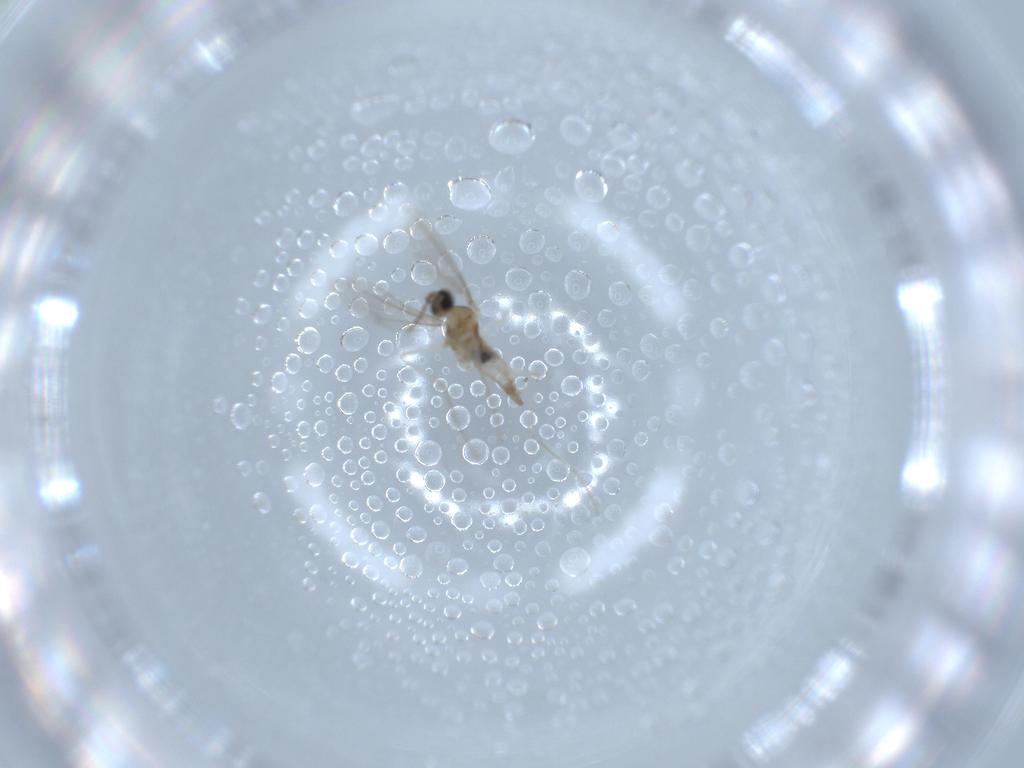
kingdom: Animalia
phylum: Arthropoda
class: Insecta
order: Diptera
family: Cecidomyiidae
